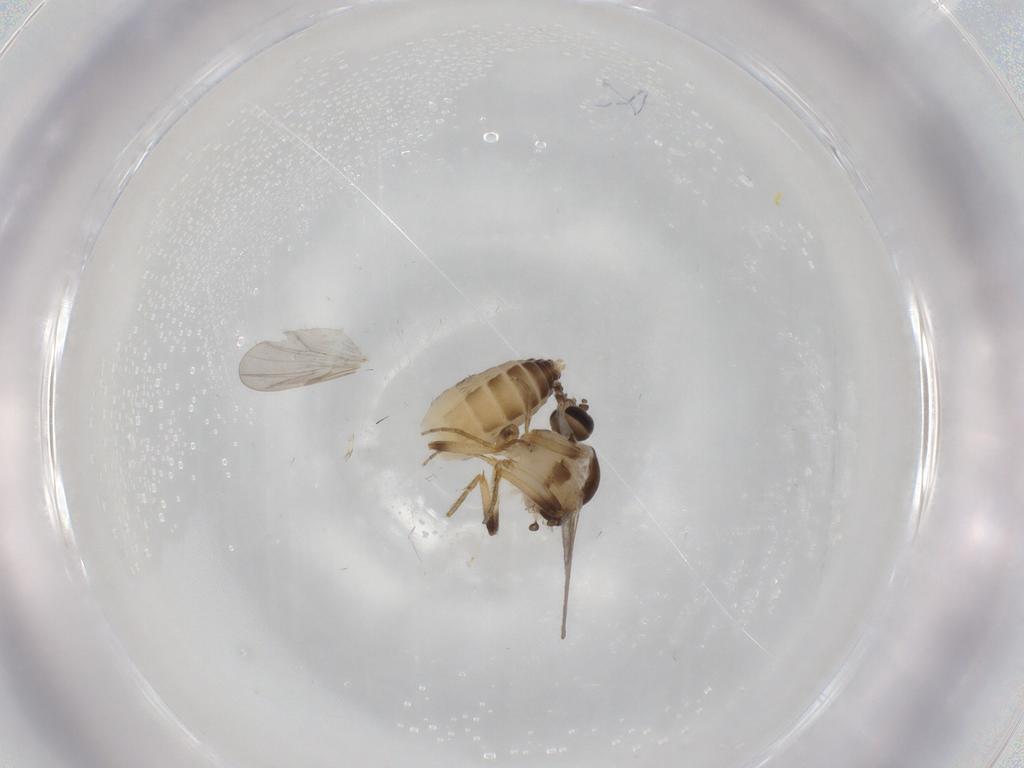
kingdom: Animalia
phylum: Arthropoda
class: Insecta
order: Diptera
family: Ceratopogonidae
